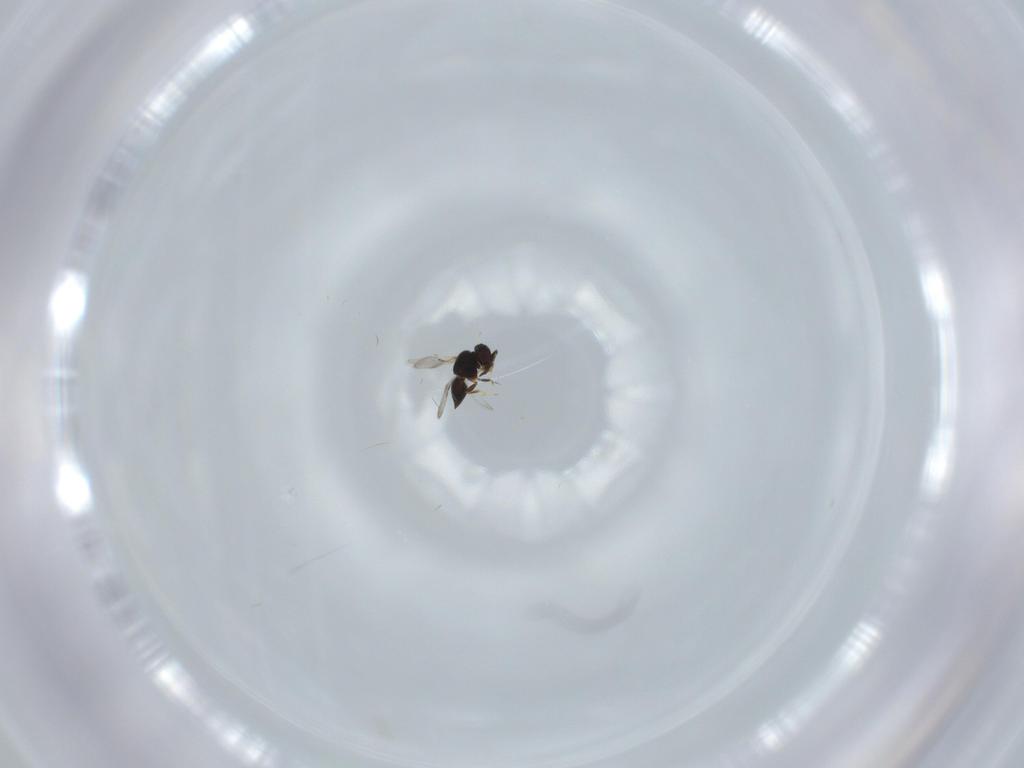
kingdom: Animalia
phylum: Arthropoda
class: Insecta
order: Hymenoptera
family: Ceraphronidae
